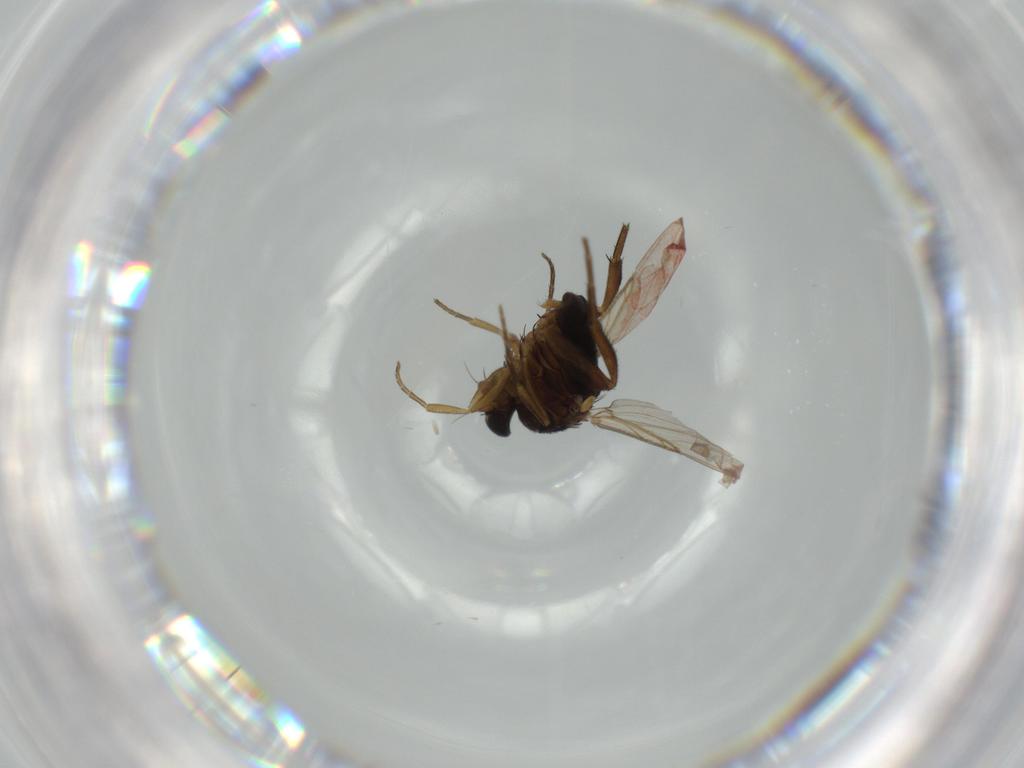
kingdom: Animalia
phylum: Arthropoda
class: Insecta
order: Diptera
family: Phoridae
